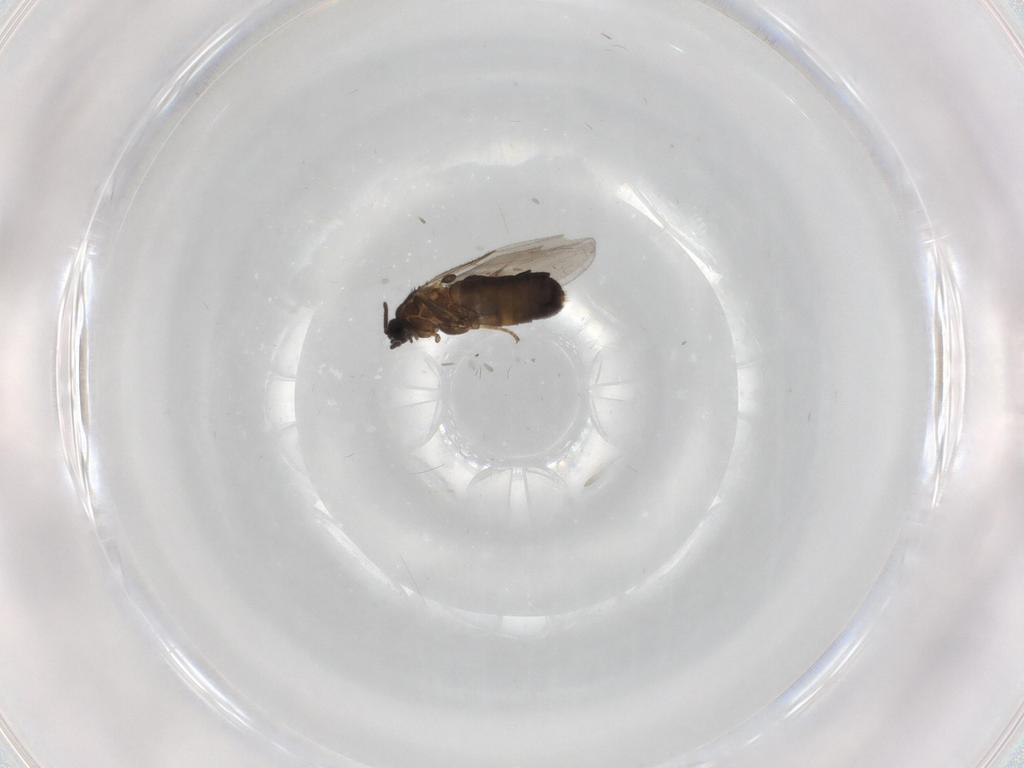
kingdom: Animalia
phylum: Arthropoda
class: Insecta
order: Diptera
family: Scatopsidae
